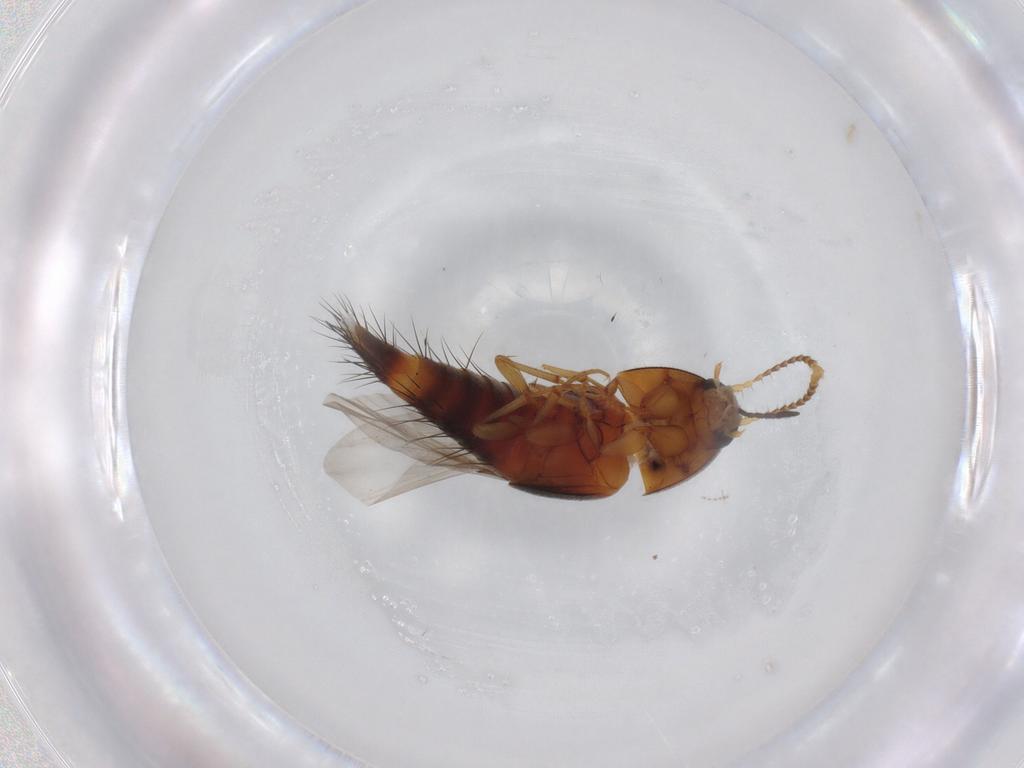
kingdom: Animalia
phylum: Arthropoda
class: Insecta
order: Coleoptera
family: Staphylinidae
